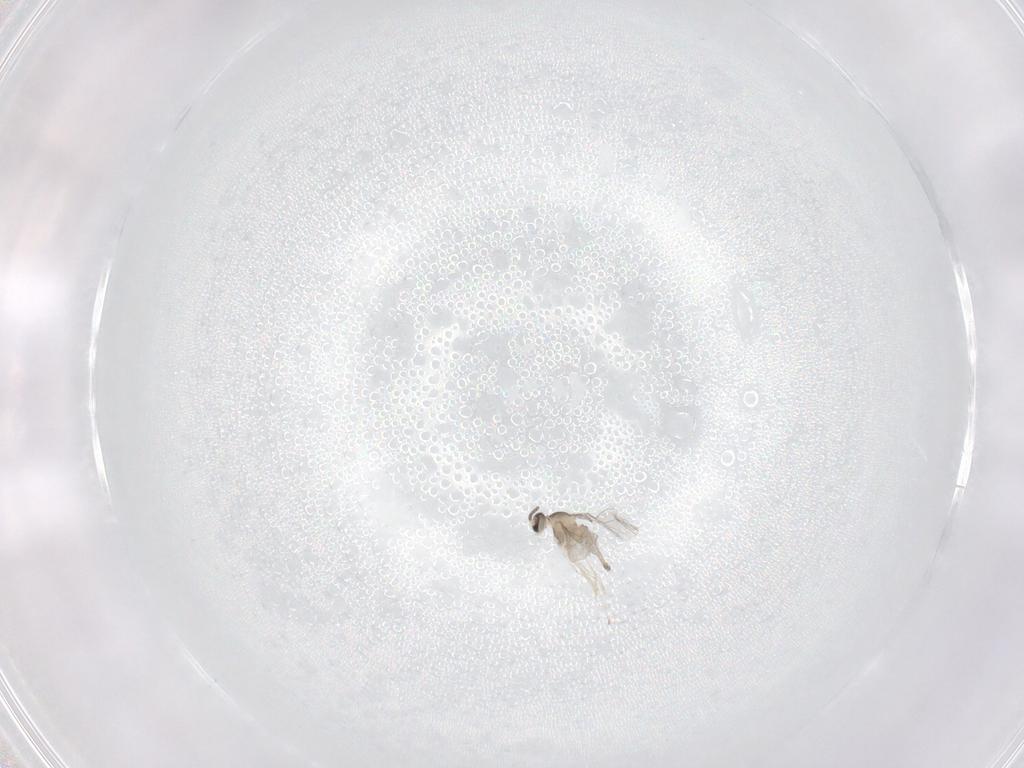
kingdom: Animalia
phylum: Arthropoda
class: Insecta
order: Diptera
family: Cecidomyiidae
